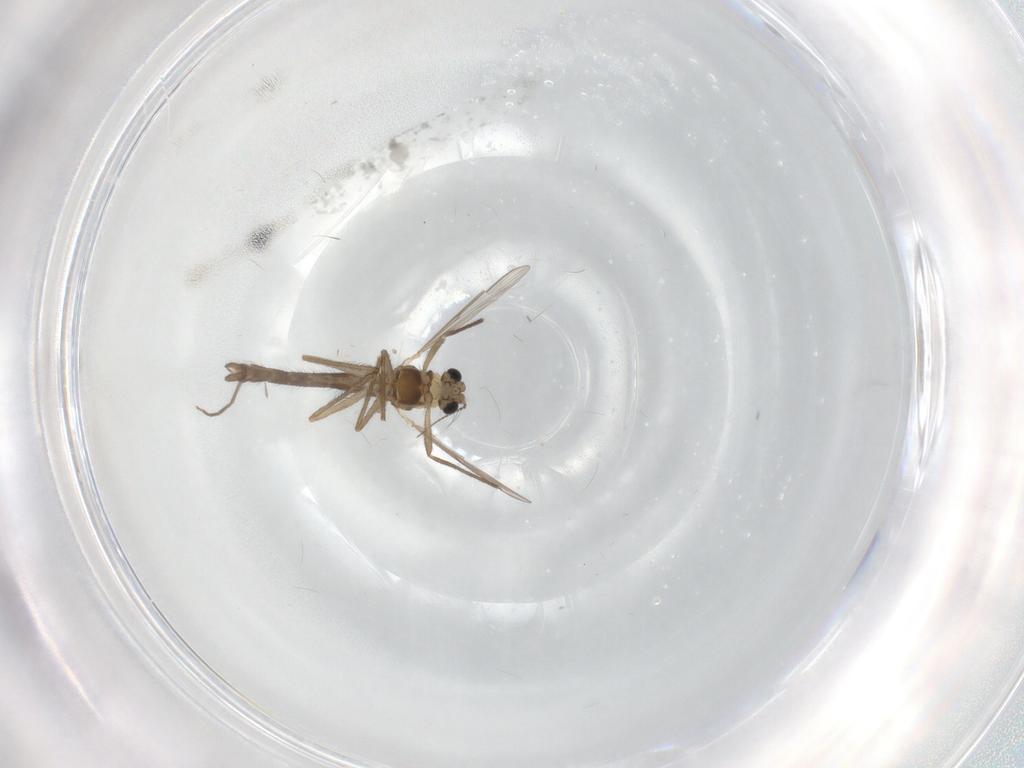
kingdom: Animalia
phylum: Arthropoda
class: Insecta
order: Diptera
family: Chironomidae
